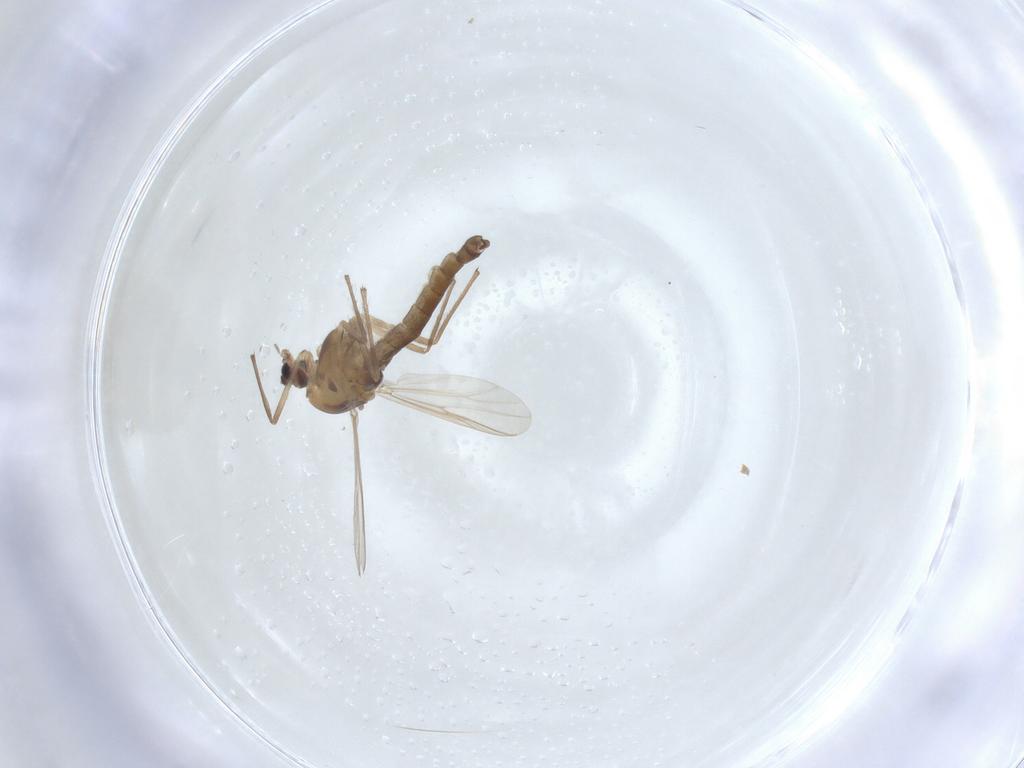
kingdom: Animalia
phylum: Arthropoda
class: Insecta
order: Diptera
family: Chironomidae
